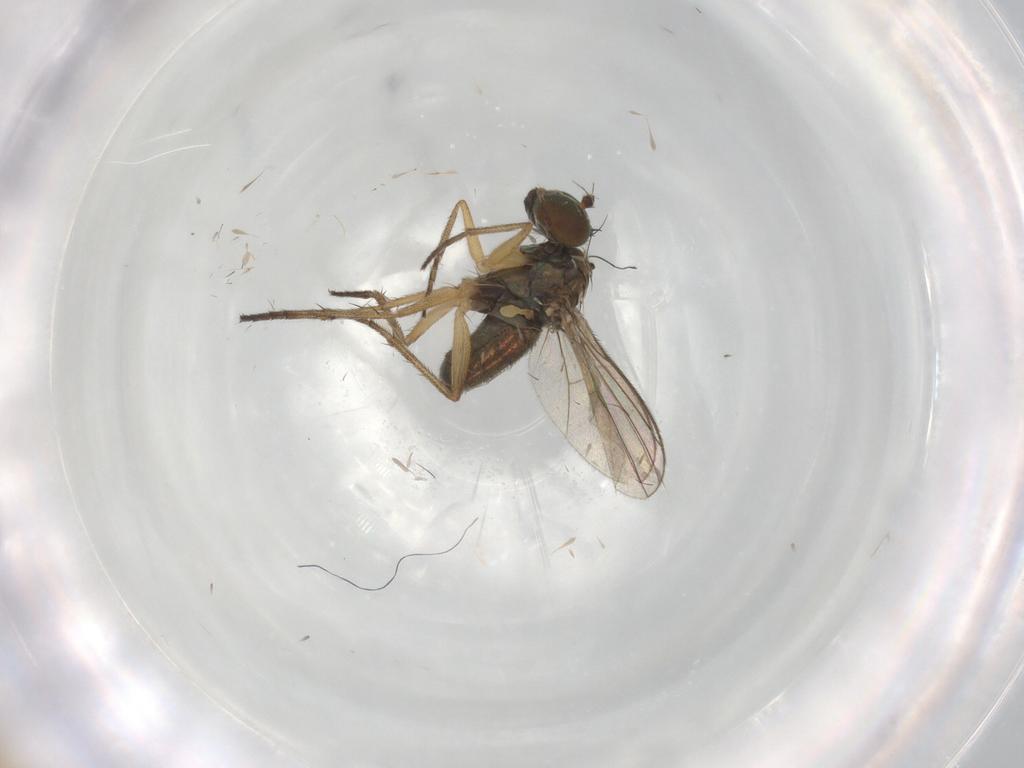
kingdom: Animalia
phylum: Arthropoda
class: Insecta
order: Diptera
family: Dolichopodidae
